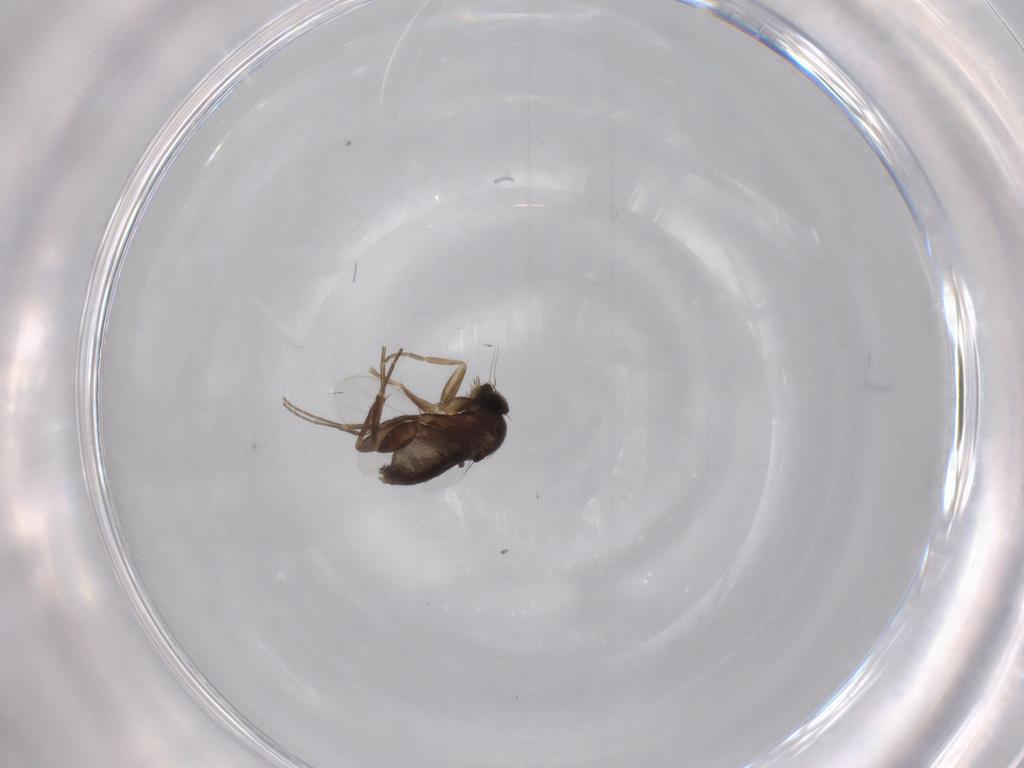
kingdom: Animalia
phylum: Arthropoda
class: Insecta
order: Diptera
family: Phoridae
